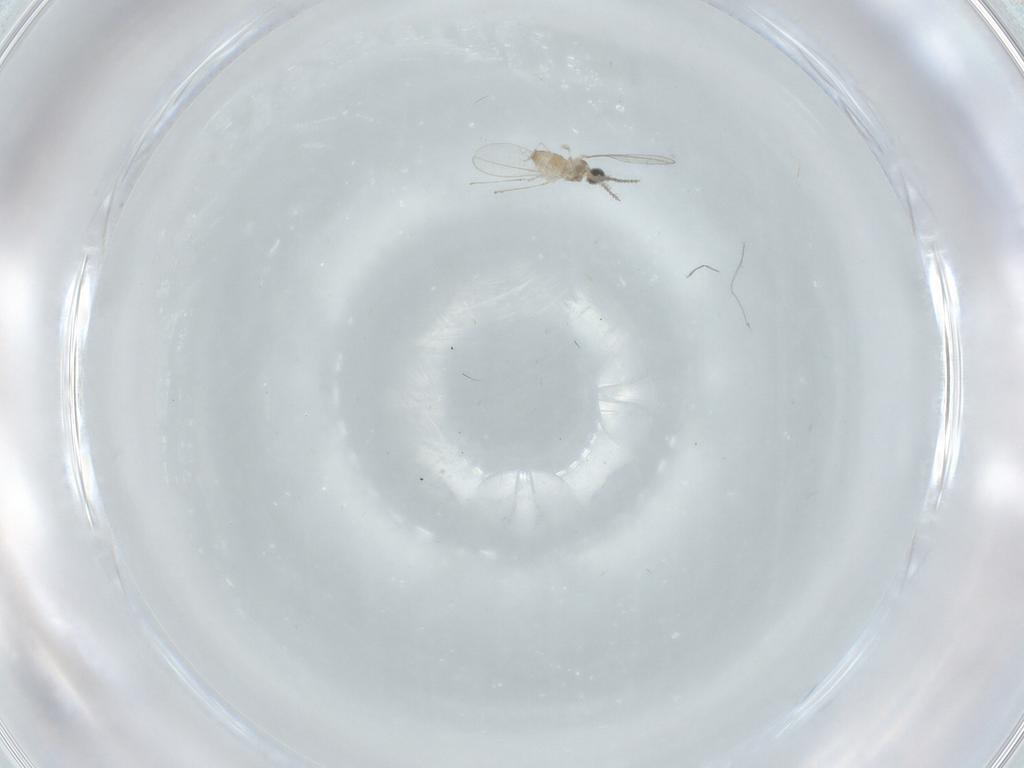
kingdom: Animalia
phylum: Arthropoda
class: Insecta
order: Diptera
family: Cecidomyiidae
